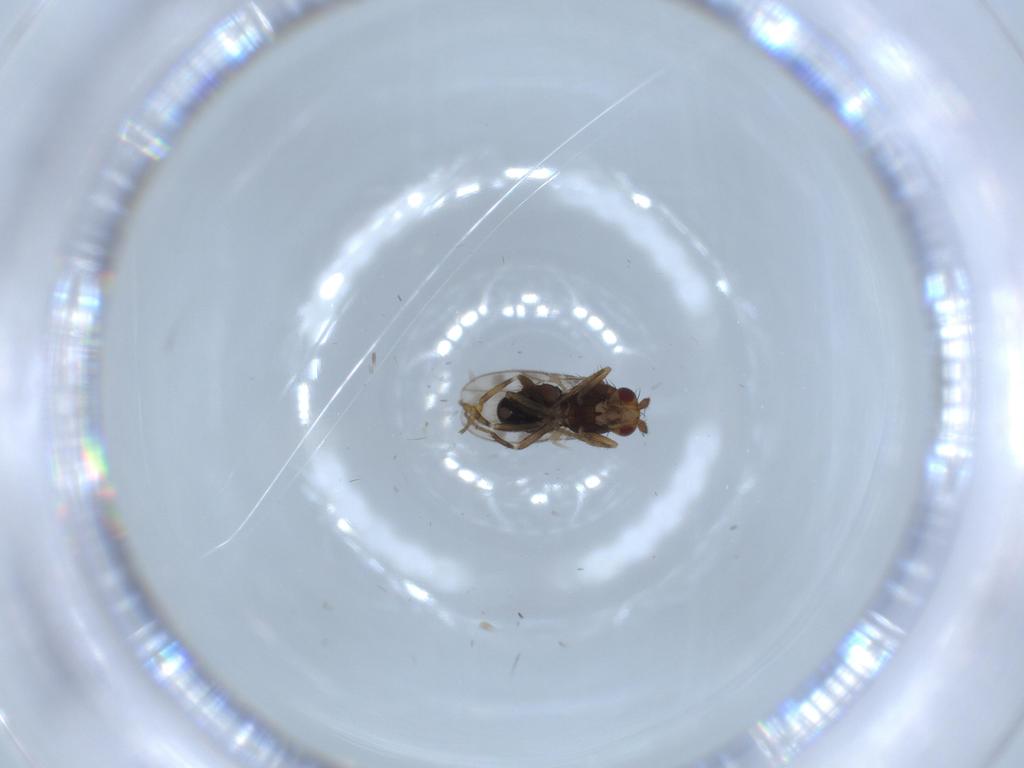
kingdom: Animalia
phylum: Arthropoda
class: Insecta
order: Diptera
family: Sphaeroceridae
